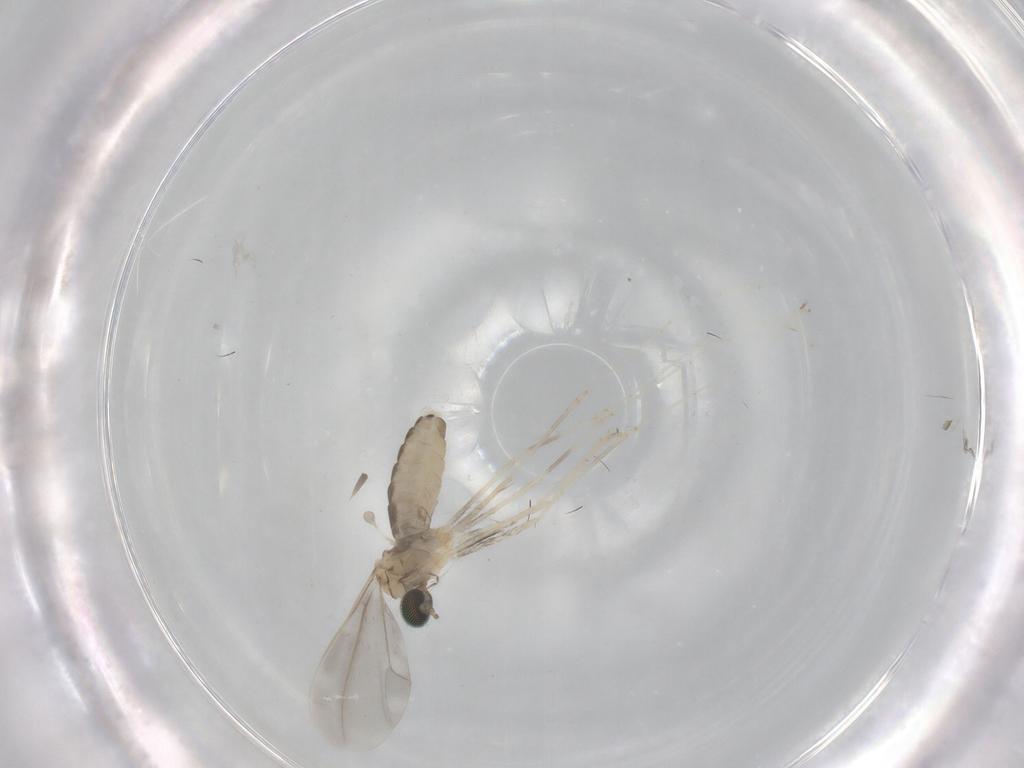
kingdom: Animalia
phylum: Arthropoda
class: Insecta
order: Diptera
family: Cecidomyiidae
